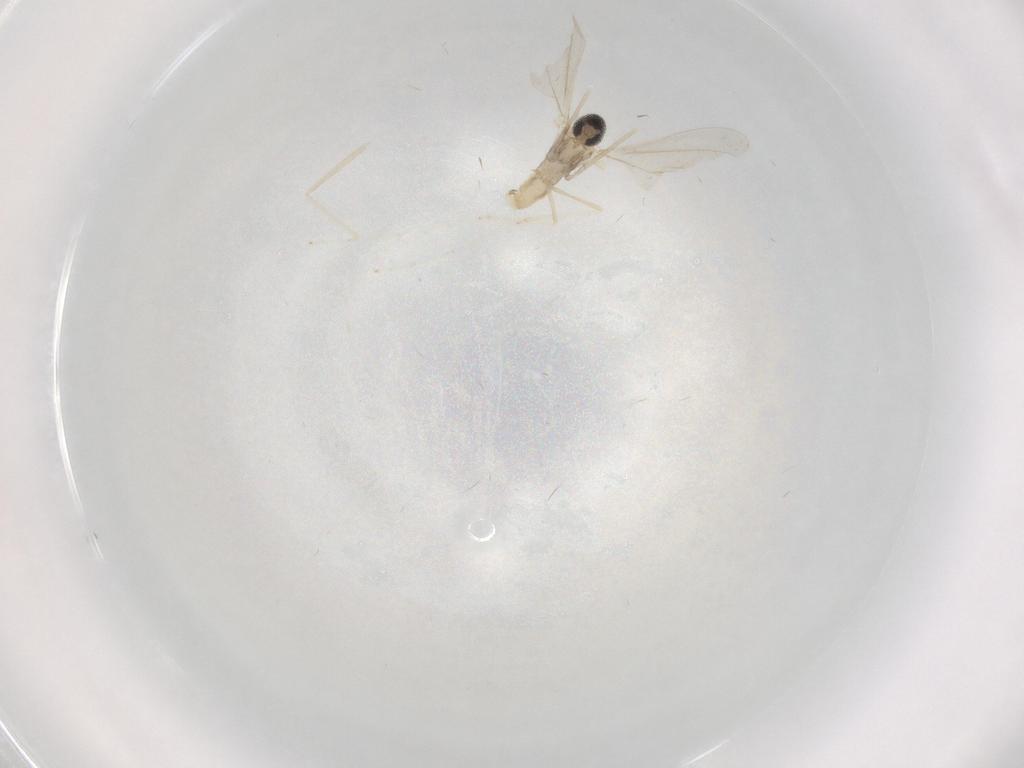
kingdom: Animalia
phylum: Arthropoda
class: Insecta
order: Diptera
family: Cecidomyiidae
